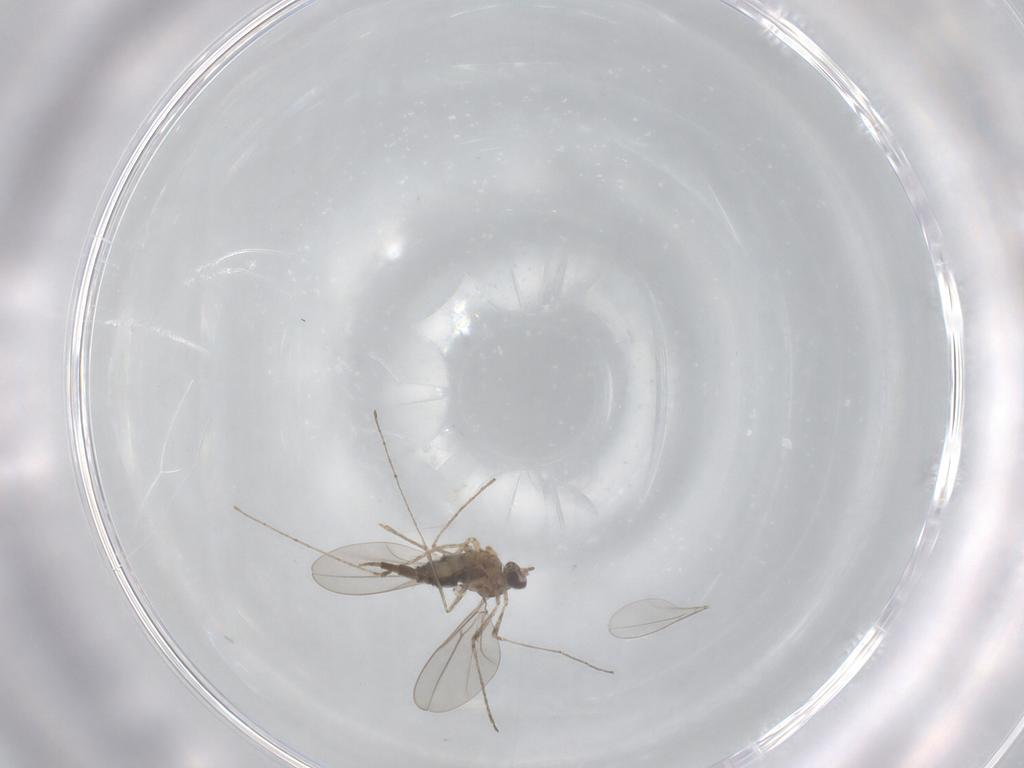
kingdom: Animalia
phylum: Arthropoda
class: Insecta
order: Diptera
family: Cecidomyiidae
